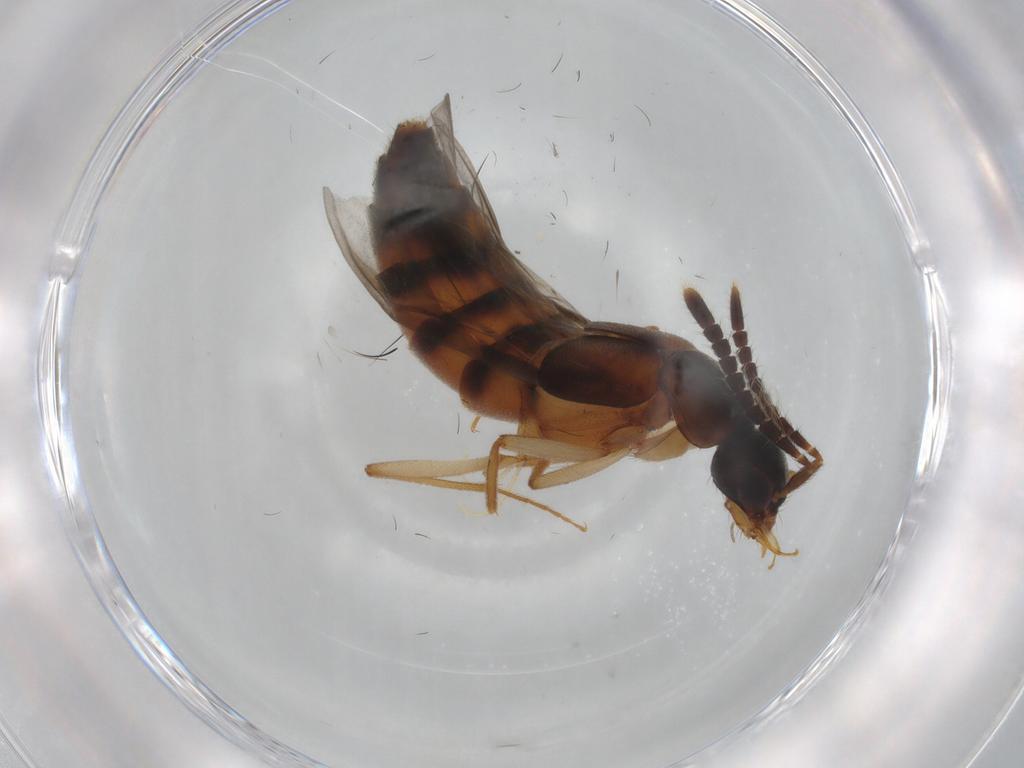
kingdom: Animalia
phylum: Arthropoda
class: Insecta
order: Coleoptera
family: Staphylinidae
